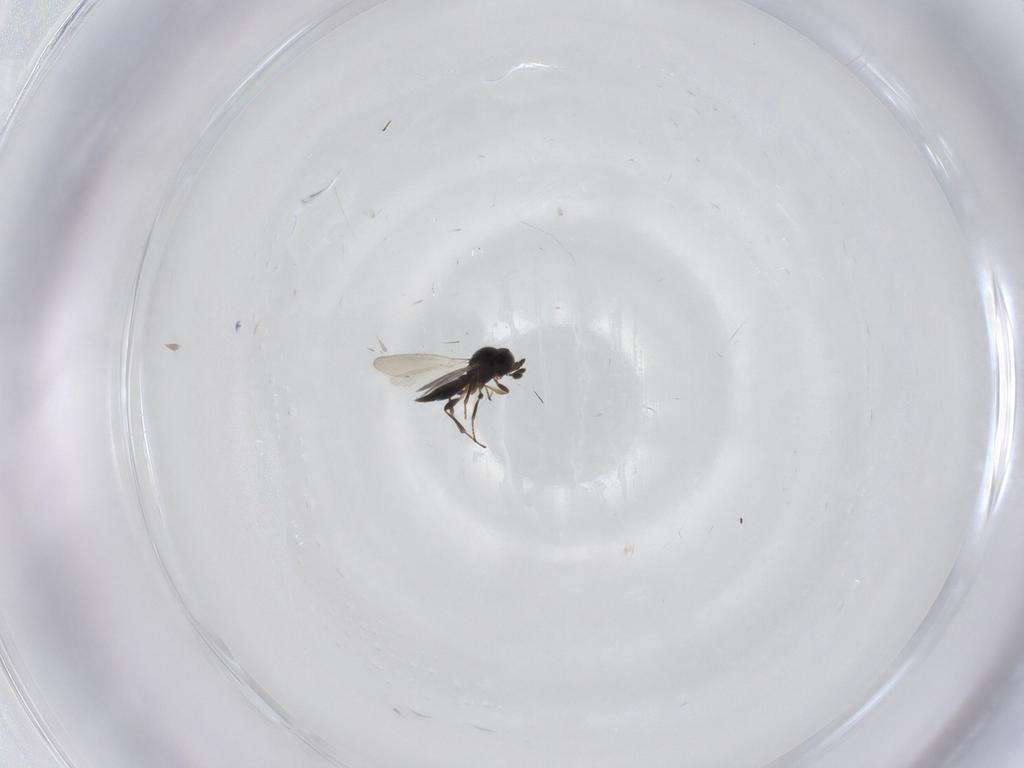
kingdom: Animalia
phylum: Arthropoda
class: Insecta
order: Hymenoptera
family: Platygastridae
